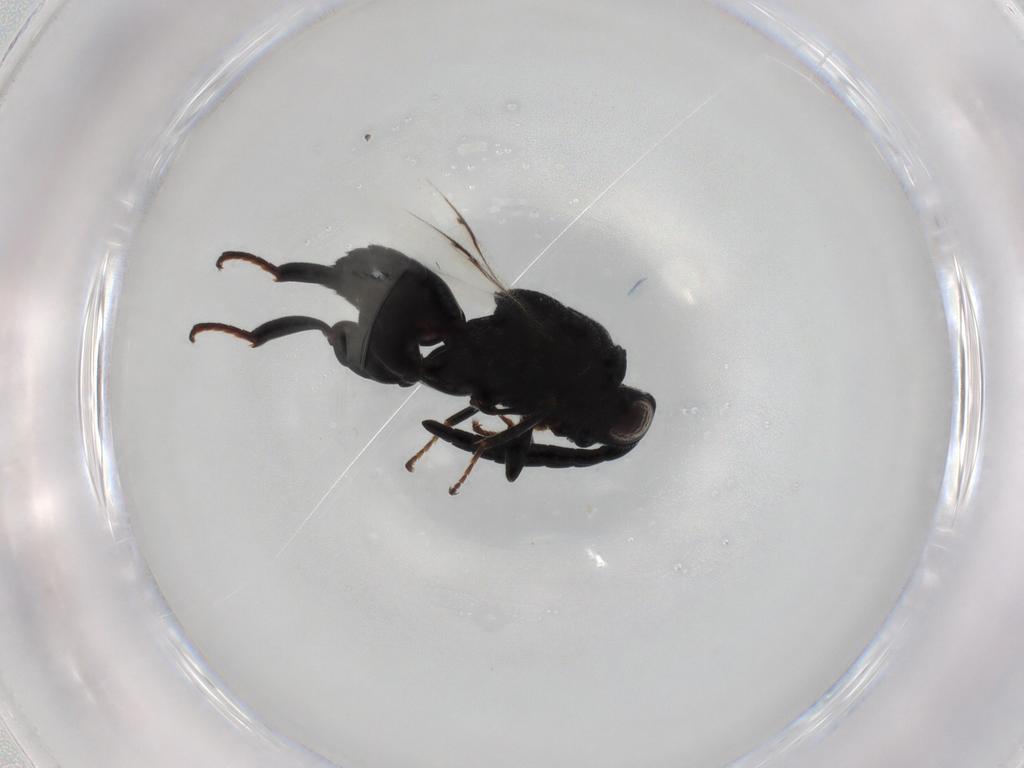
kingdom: Animalia
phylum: Arthropoda
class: Insecta
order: Hymenoptera
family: Chalcididae
